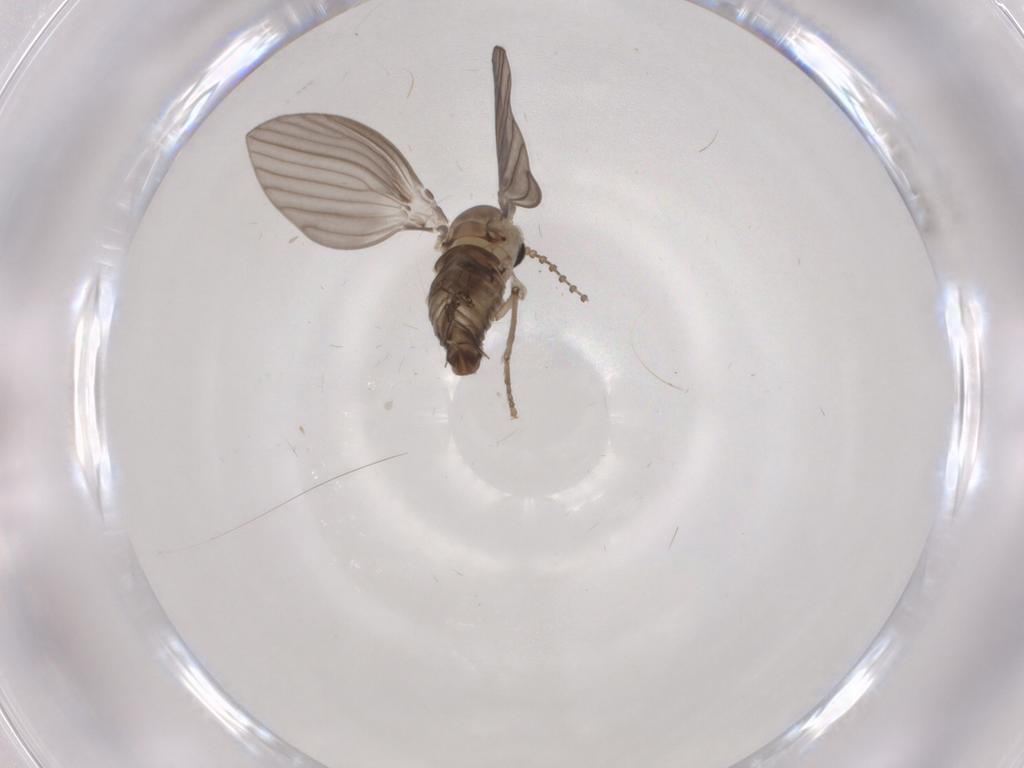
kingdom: Animalia
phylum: Arthropoda
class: Insecta
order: Diptera
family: Psychodidae
